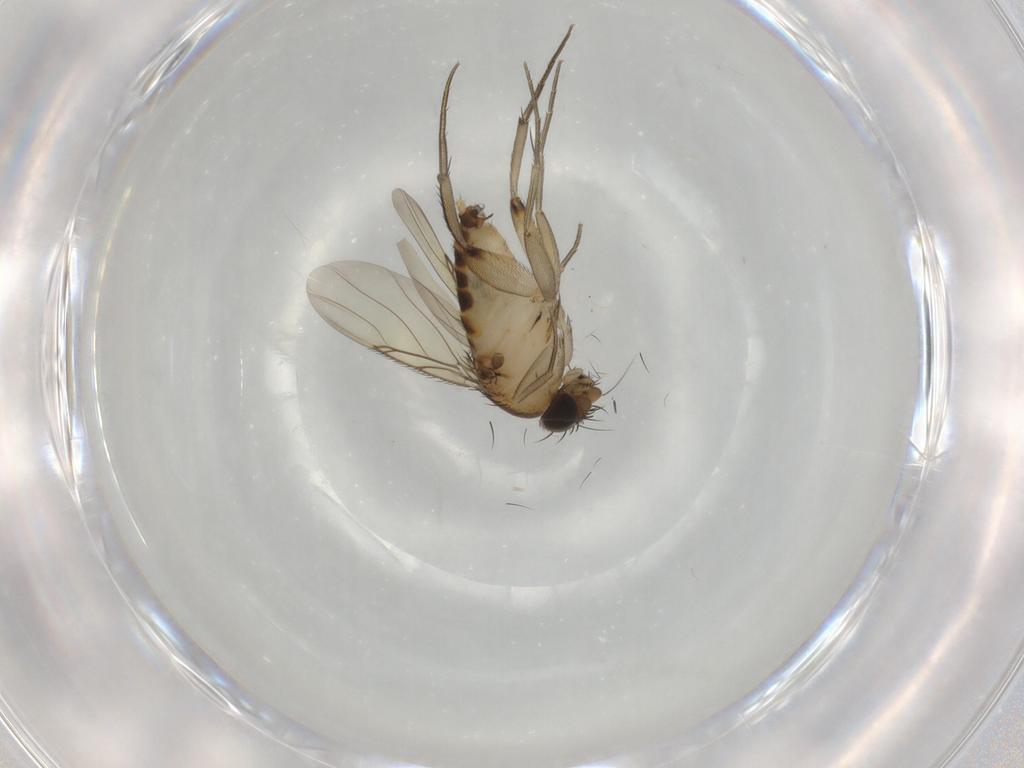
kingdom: Animalia
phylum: Arthropoda
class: Insecta
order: Diptera
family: Phoridae
